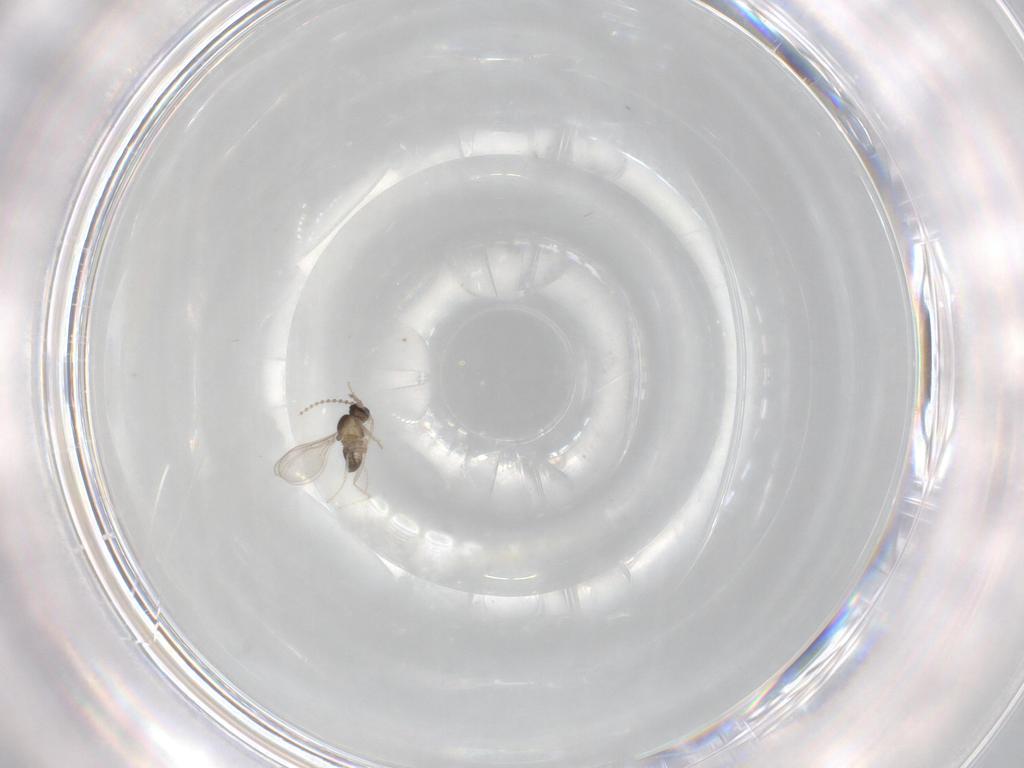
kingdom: Animalia
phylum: Arthropoda
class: Insecta
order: Diptera
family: Cecidomyiidae
